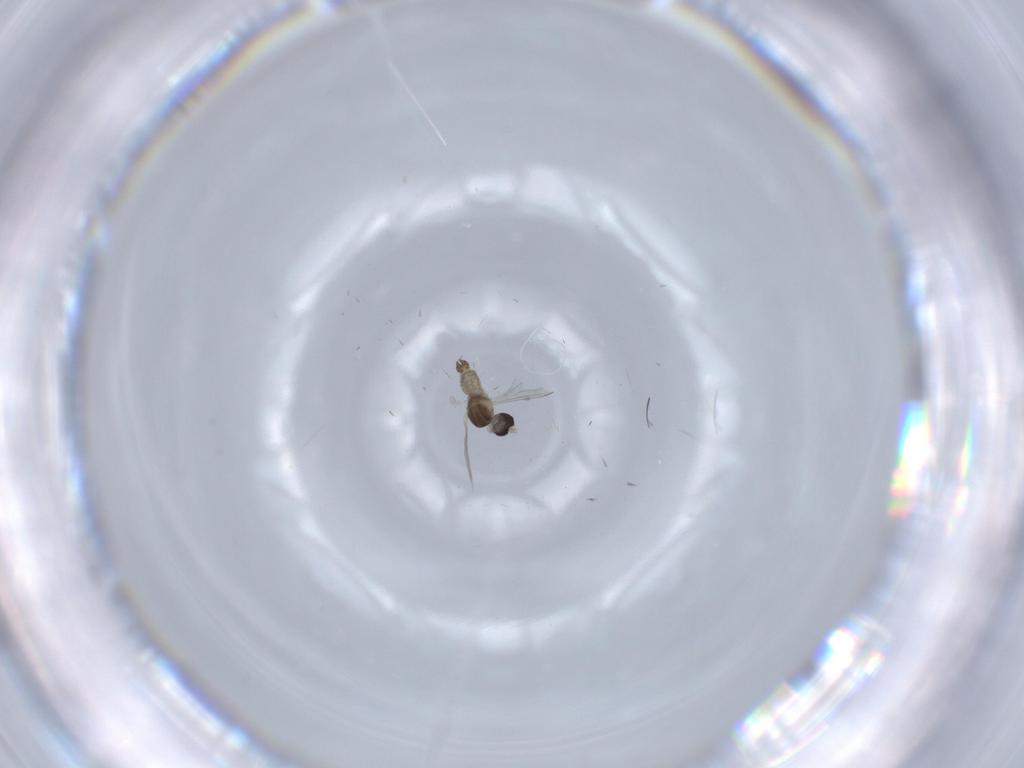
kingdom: Animalia
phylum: Arthropoda
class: Insecta
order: Diptera
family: Cecidomyiidae
